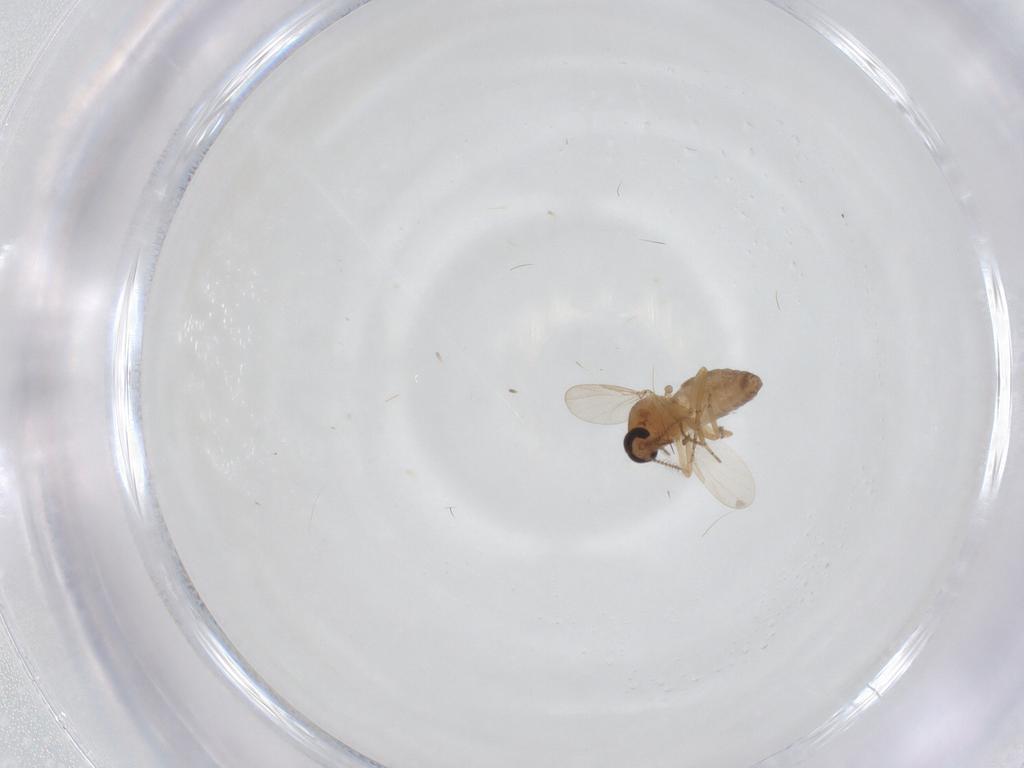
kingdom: Animalia
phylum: Arthropoda
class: Insecta
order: Diptera
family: Ceratopogonidae
